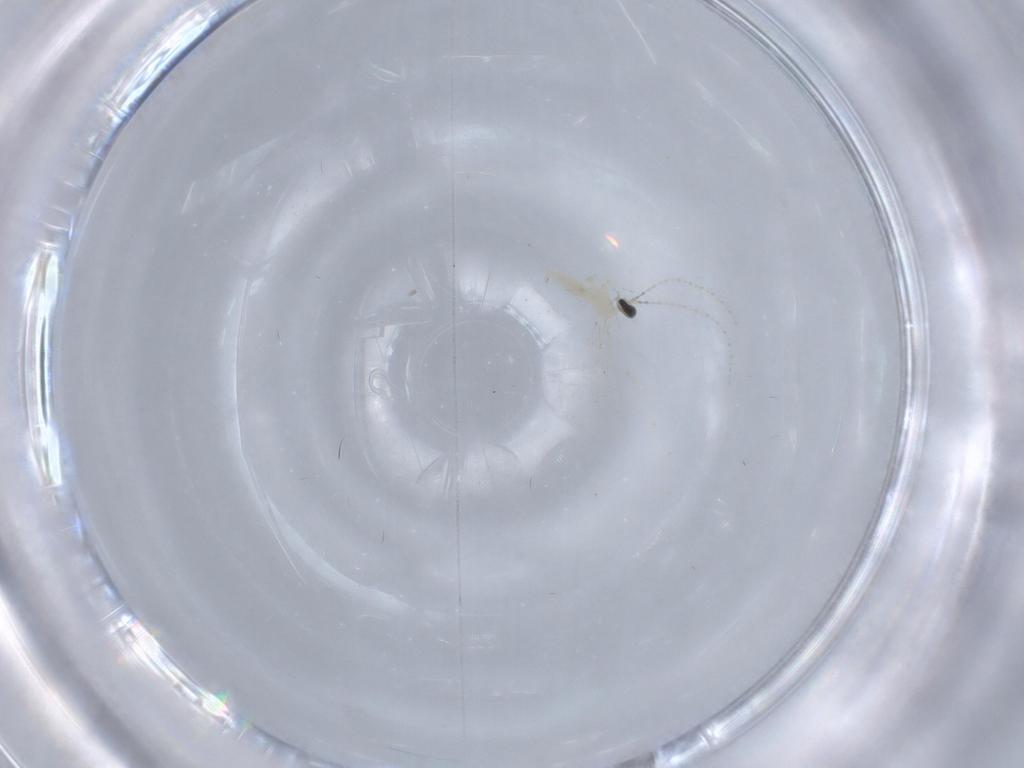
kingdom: Animalia
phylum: Arthropoda
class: Insecta
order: Diptera
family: Cecidomyiidae
